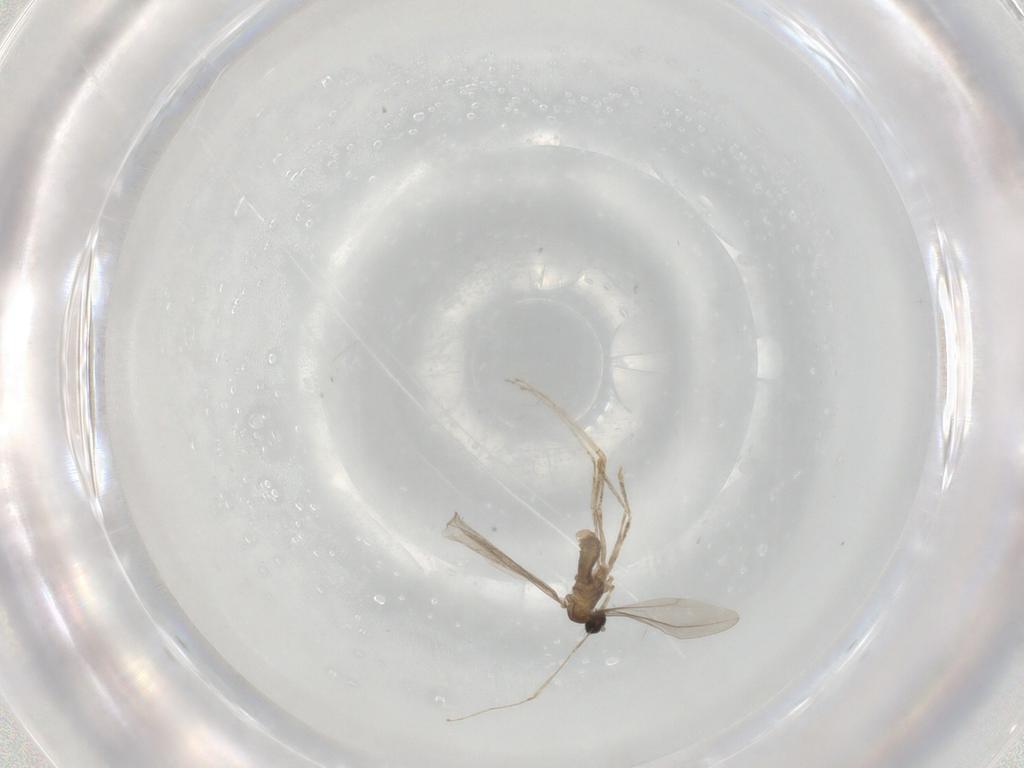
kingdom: Animalia
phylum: Arthropoda
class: Insecta
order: Diptera
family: Cecidomyiidae
